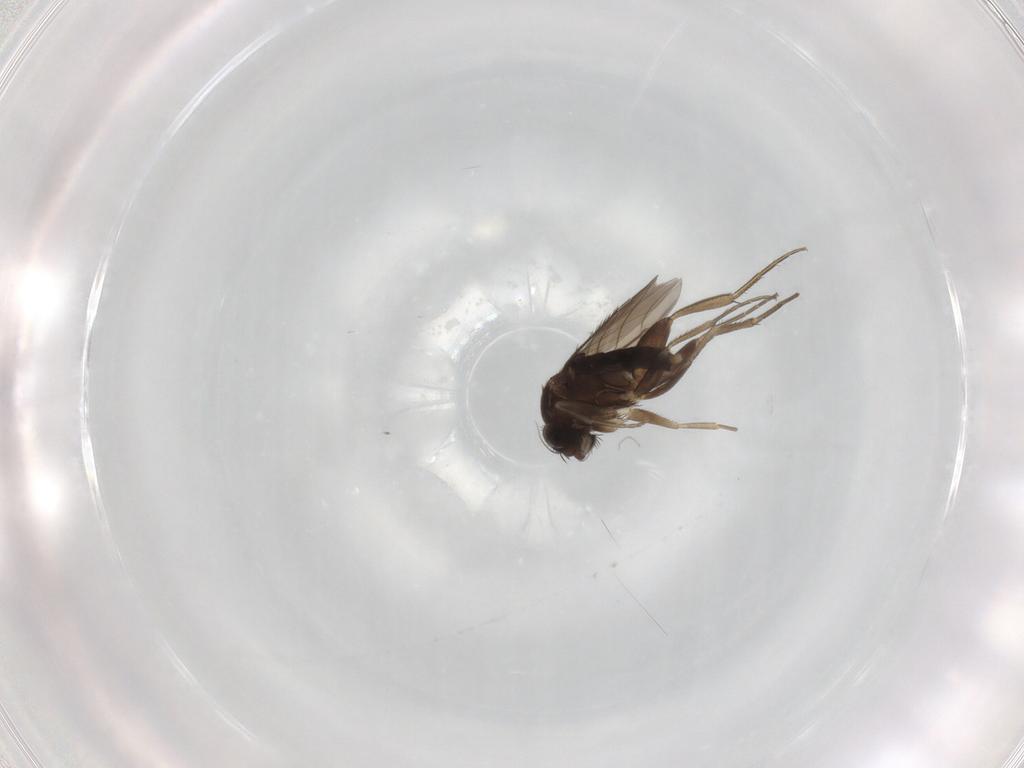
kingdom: Animalia
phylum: Arthropoda
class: Insecta
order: Diptera
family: Phoridae
